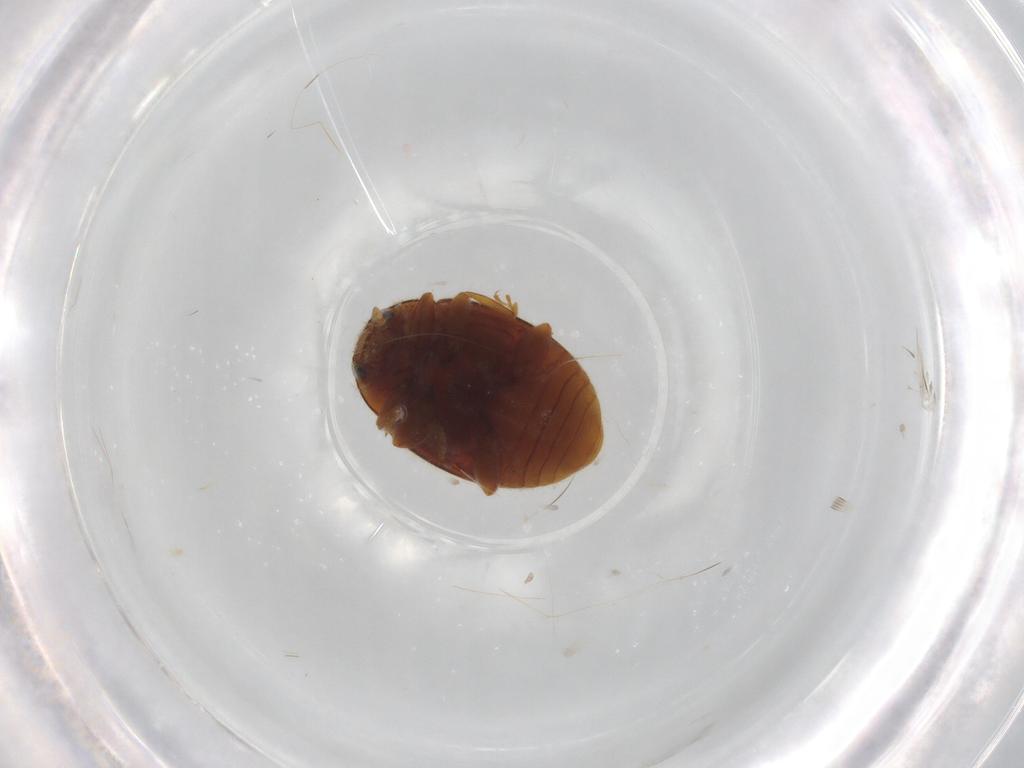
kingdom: Animalia
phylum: Arthropoda
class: Insecta
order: Coleoptera
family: Coccinellidae
